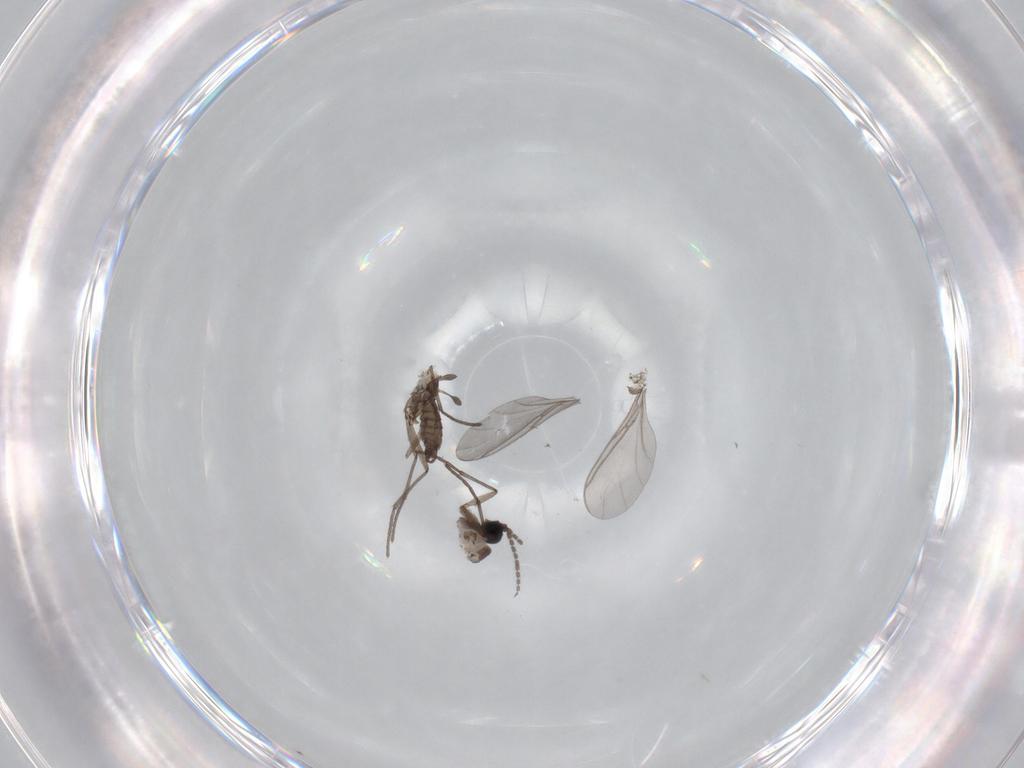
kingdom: Animalia
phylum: Arthropoda
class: Insecta
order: Diptera
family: Sciaridae
